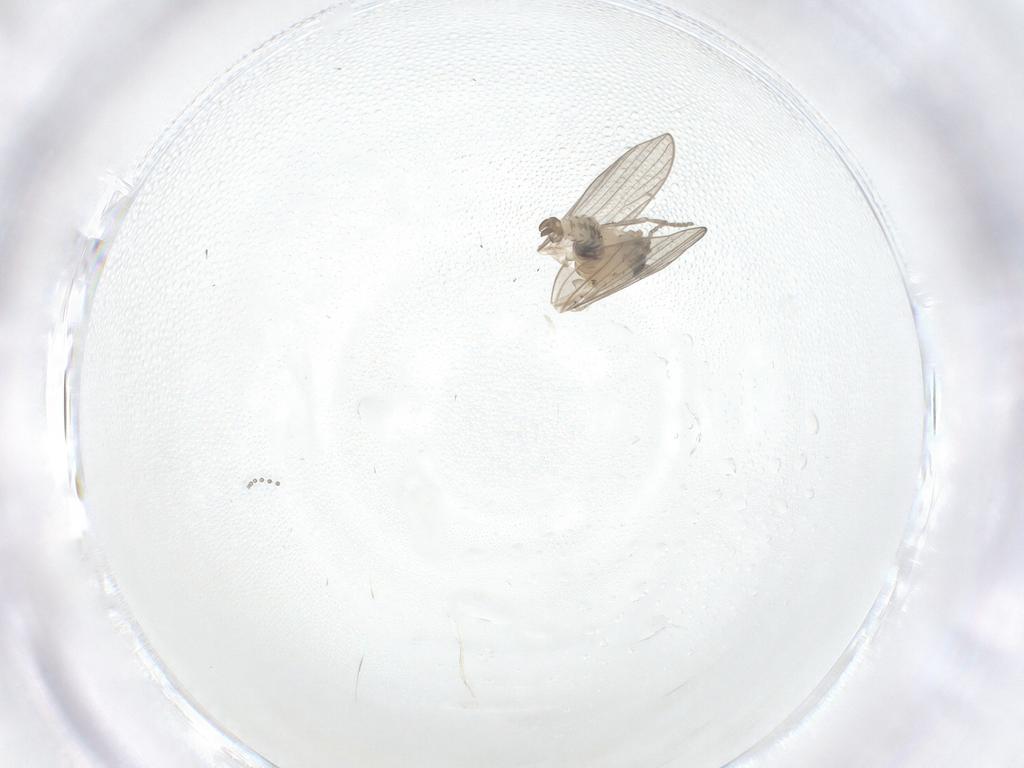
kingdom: Animalia
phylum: Arthropoda
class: Insecta
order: Diptera
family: Psychodidae
